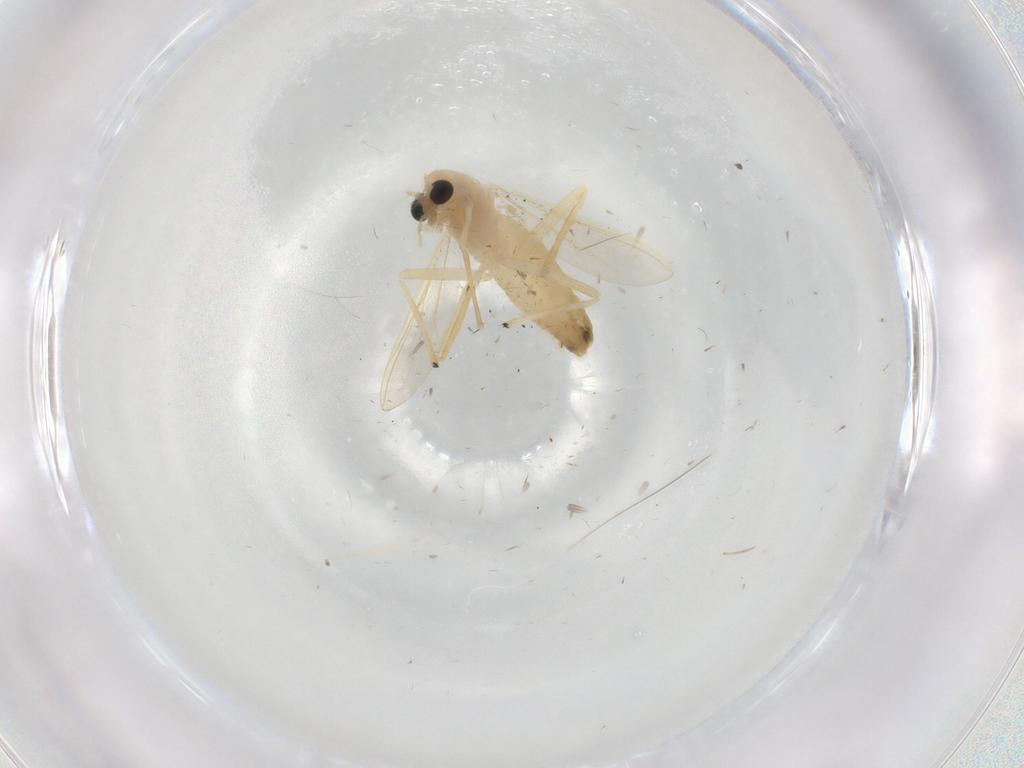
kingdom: Animalia
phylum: Arthropoda
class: Insecta
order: Diptera
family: Chironomidae
